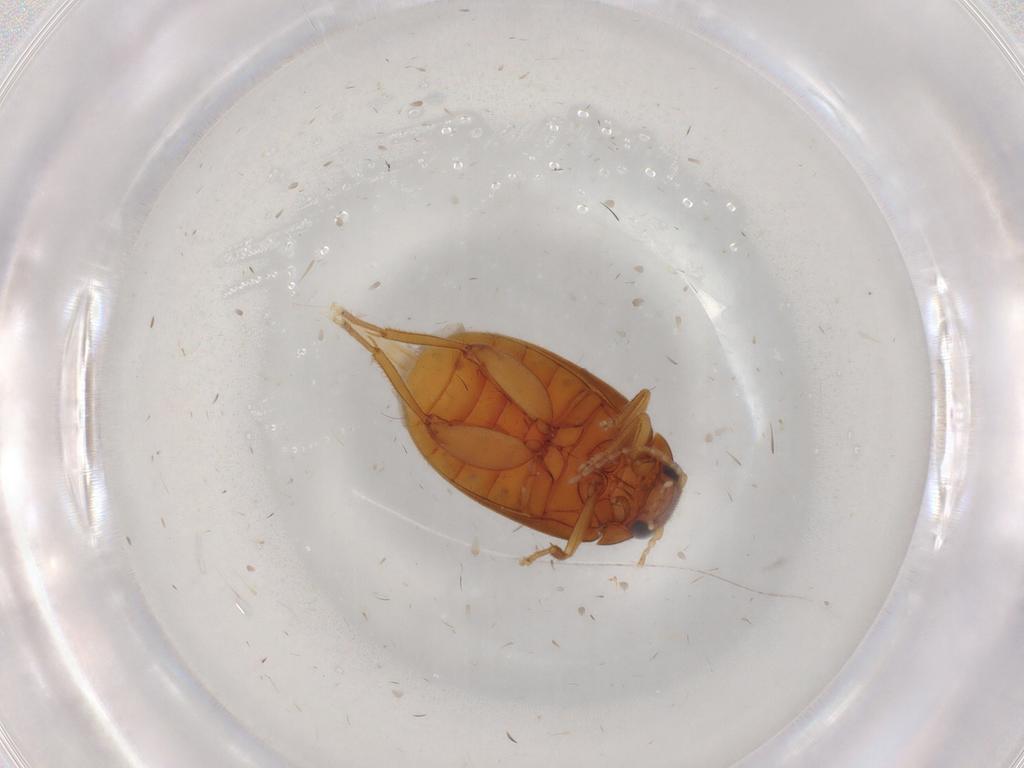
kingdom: Animalia
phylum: Arthropoda
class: Insecta
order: Coleoptera
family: Scirtidae
